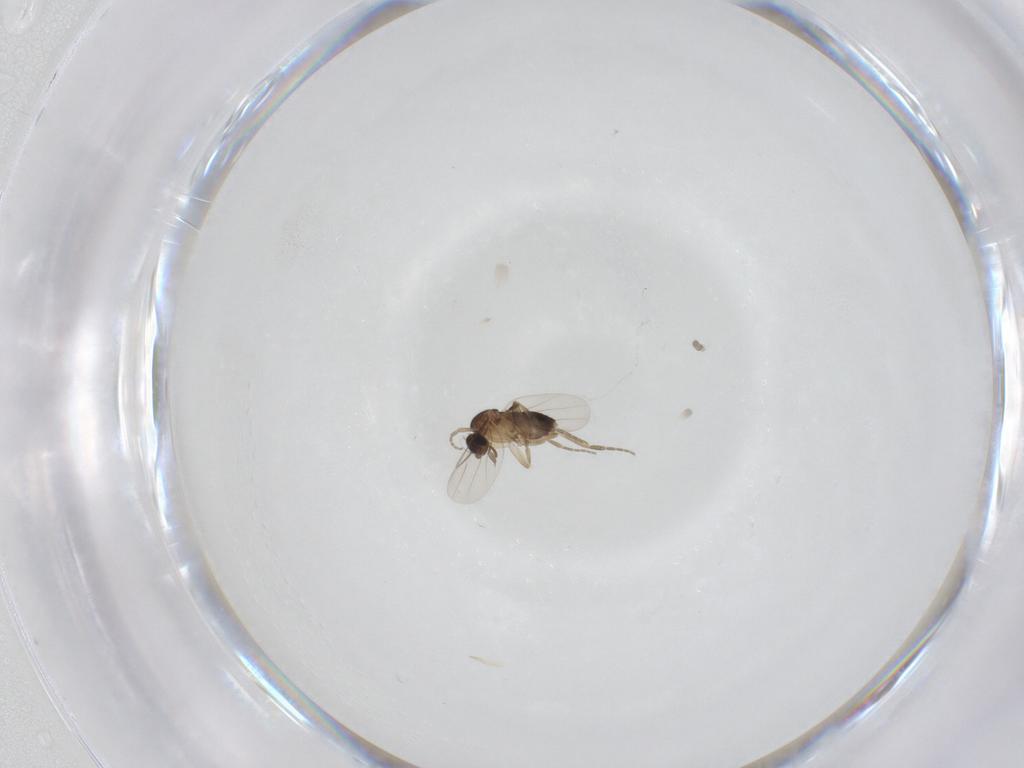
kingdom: Animalia
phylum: Arthropoda
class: Insecta
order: Diptera
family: Phoridae
